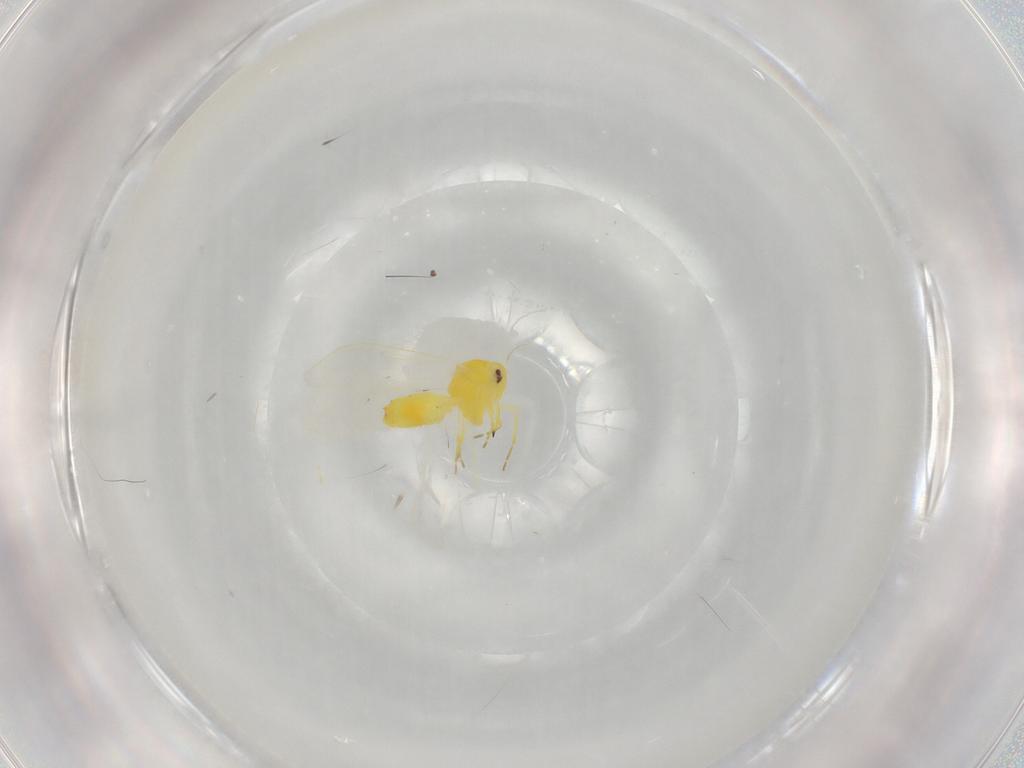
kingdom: Animalia
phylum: Arthropoda
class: Insecta
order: Hemiptera
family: Aleyrodidae
